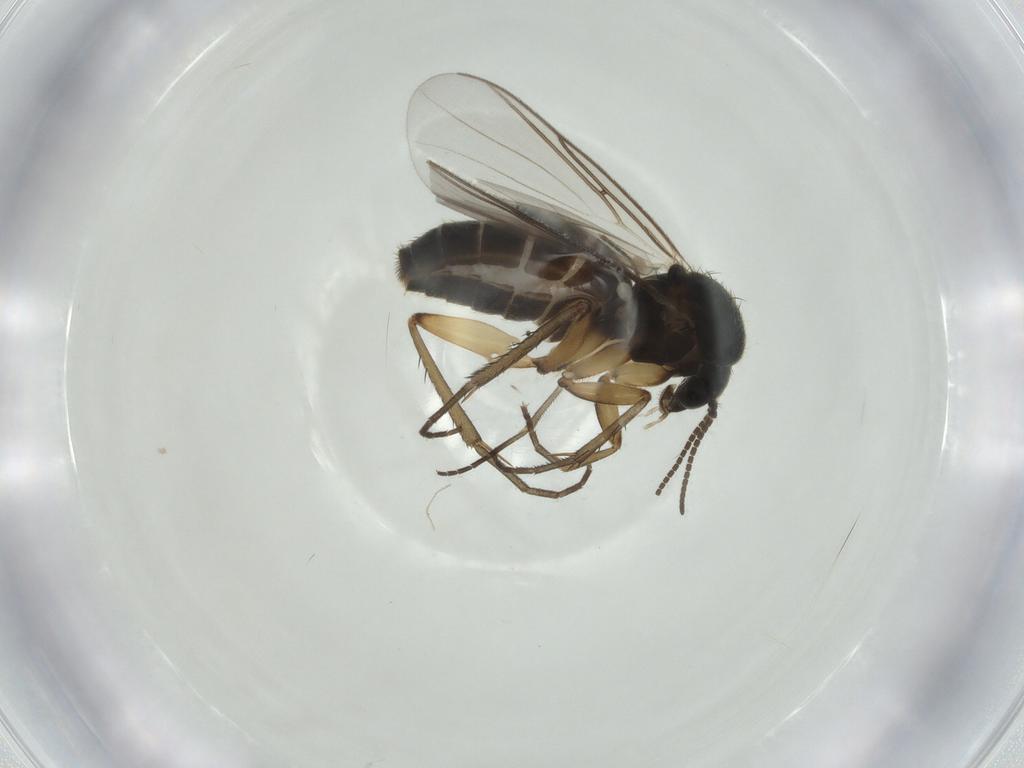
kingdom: Animalia
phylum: Arthropoda
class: Insecta
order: Diptera
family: Mycetophilidae
